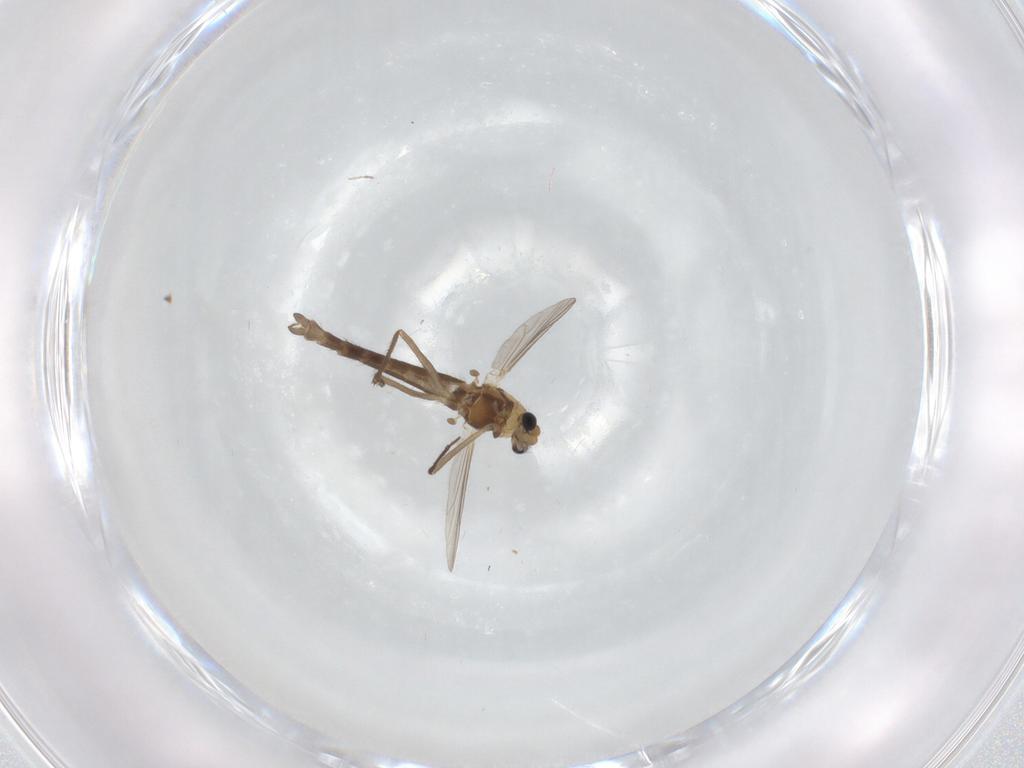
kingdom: Animalia
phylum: Arthropoda
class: Insecta
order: Diptera
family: Chironomidae
